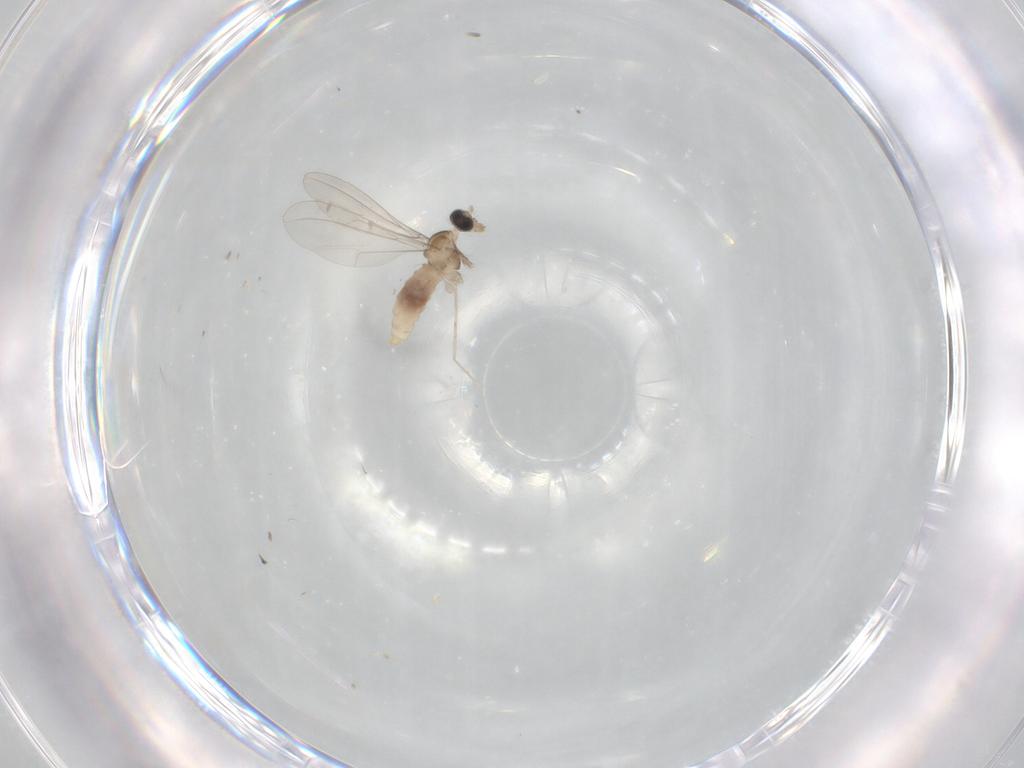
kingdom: Animalia
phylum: Arthropoda
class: Insecta
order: Diptera
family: Cecidomyiidae
